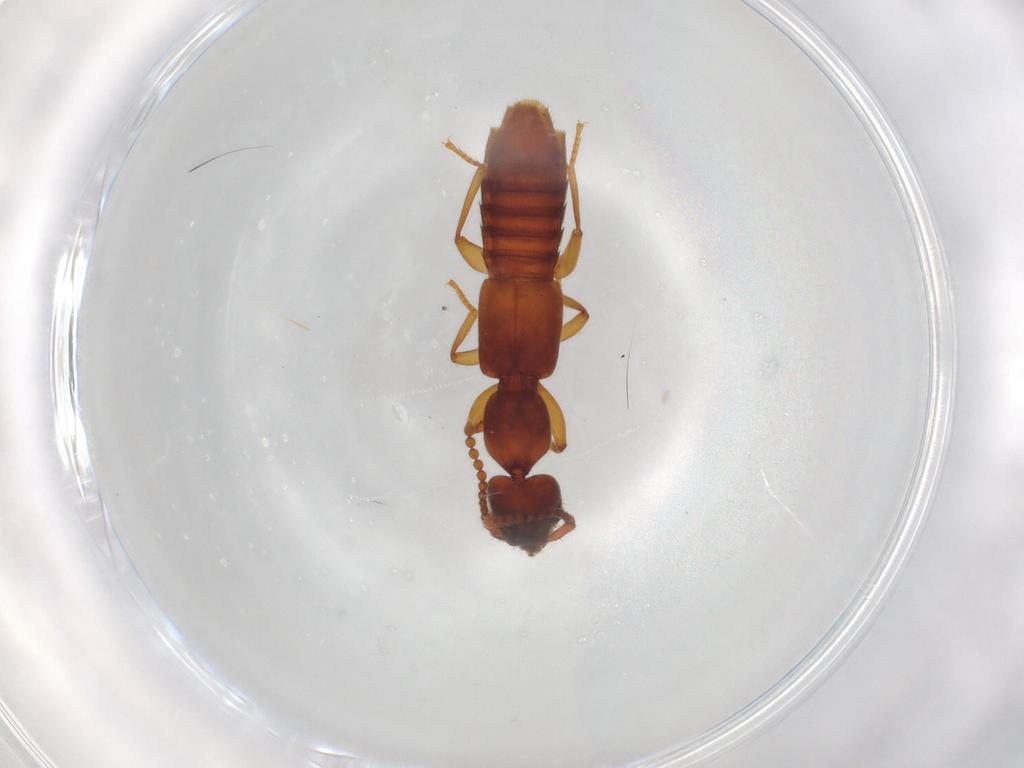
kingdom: Animalia
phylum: Arthropoda
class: Insecta
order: Coleoptera
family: Staphylinidae
